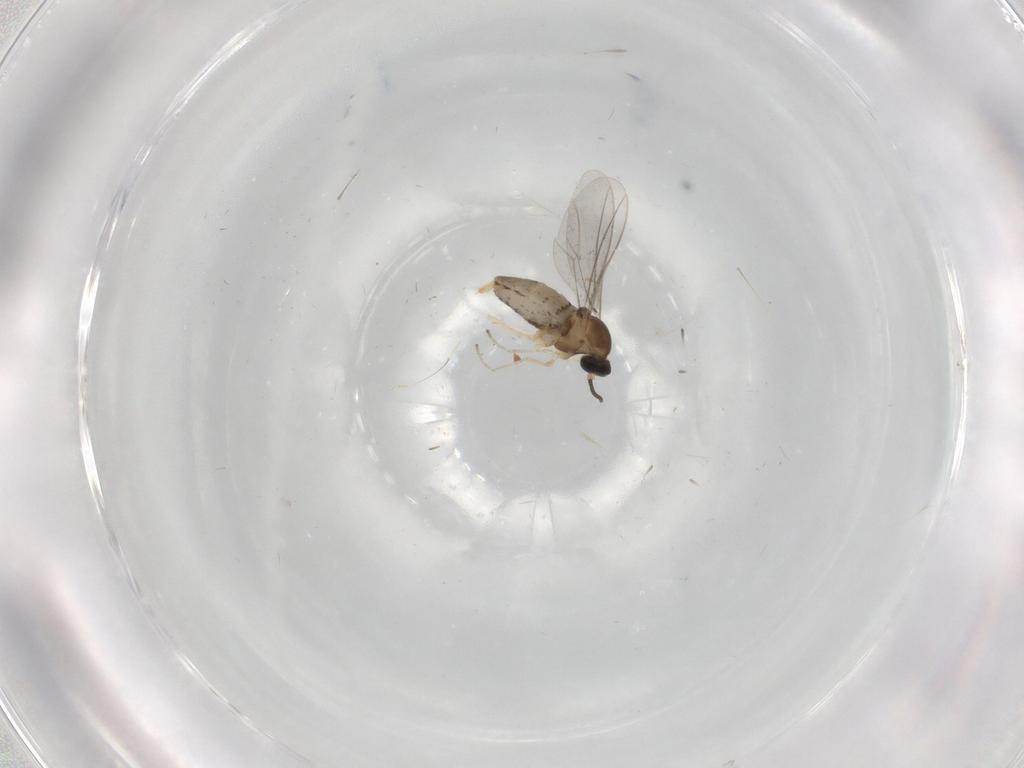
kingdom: Animalia
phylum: Arthropoda
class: Insecta
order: Diptera
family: Cecidomyiidae
